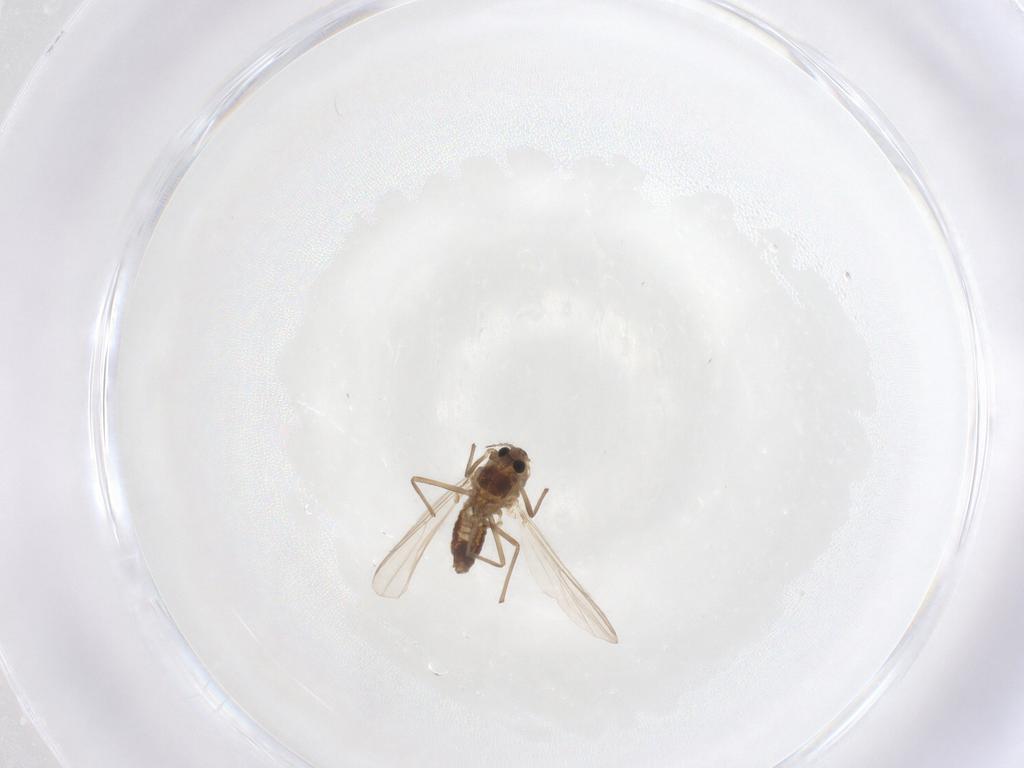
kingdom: Animalia
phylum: Arthropoda
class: Insecta
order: Diptera
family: Chironomidae
